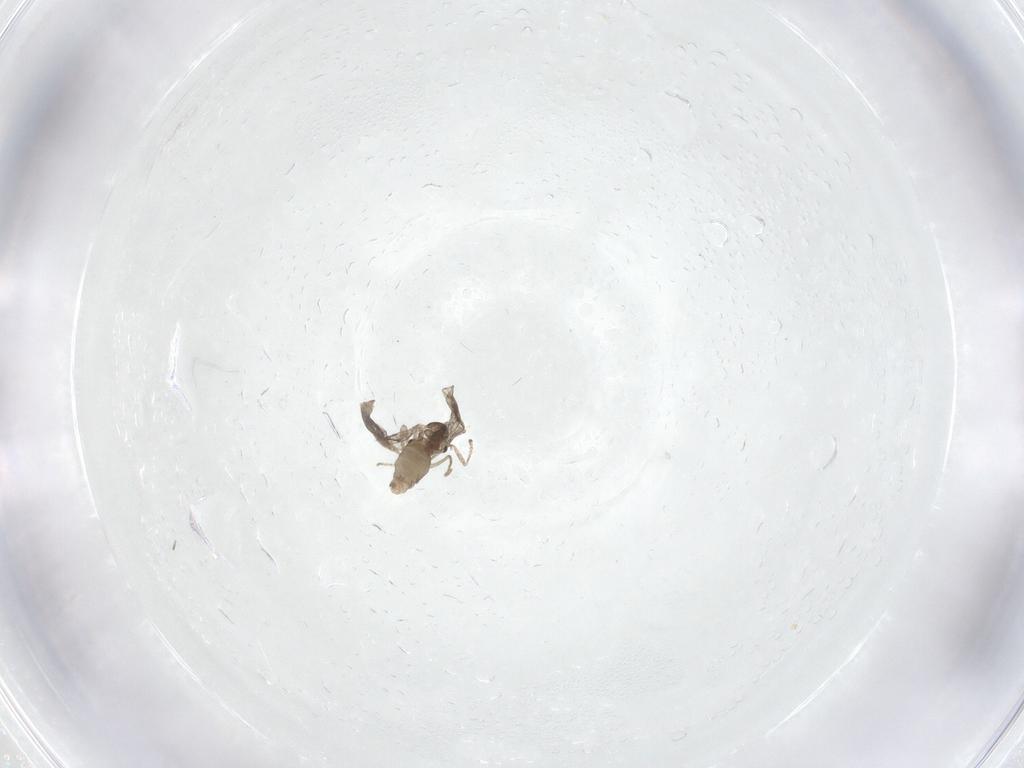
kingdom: Animalia
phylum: Arthropoda
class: Insecta
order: Diptera
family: Cecidomyiidae
